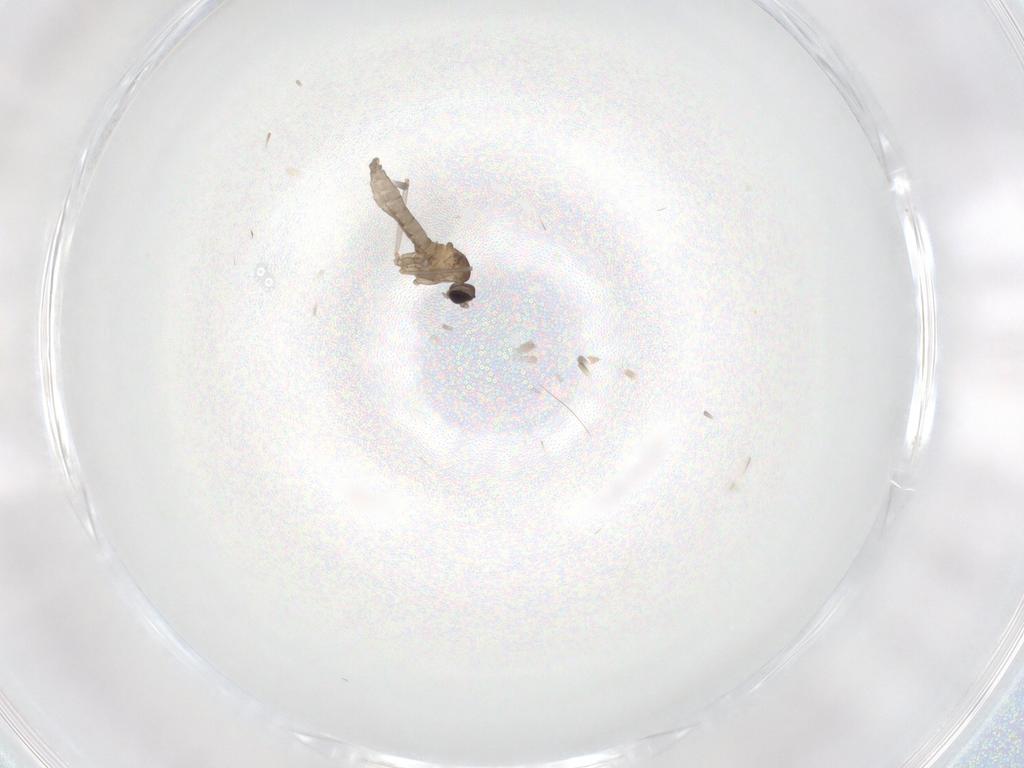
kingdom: Animalia
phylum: Arthropoda
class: Insecta
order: Diptera
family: Cecidomyiidae
